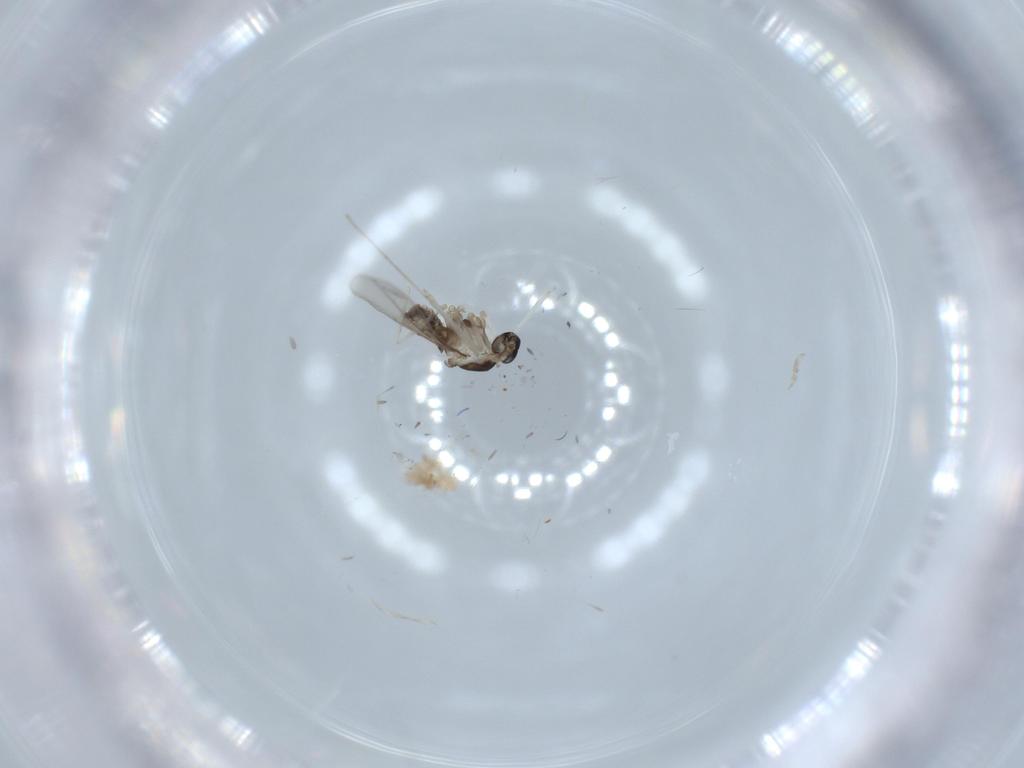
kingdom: Animalia
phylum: Arthropoda
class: Insecta
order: Diptera
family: Cecidomyiidae
